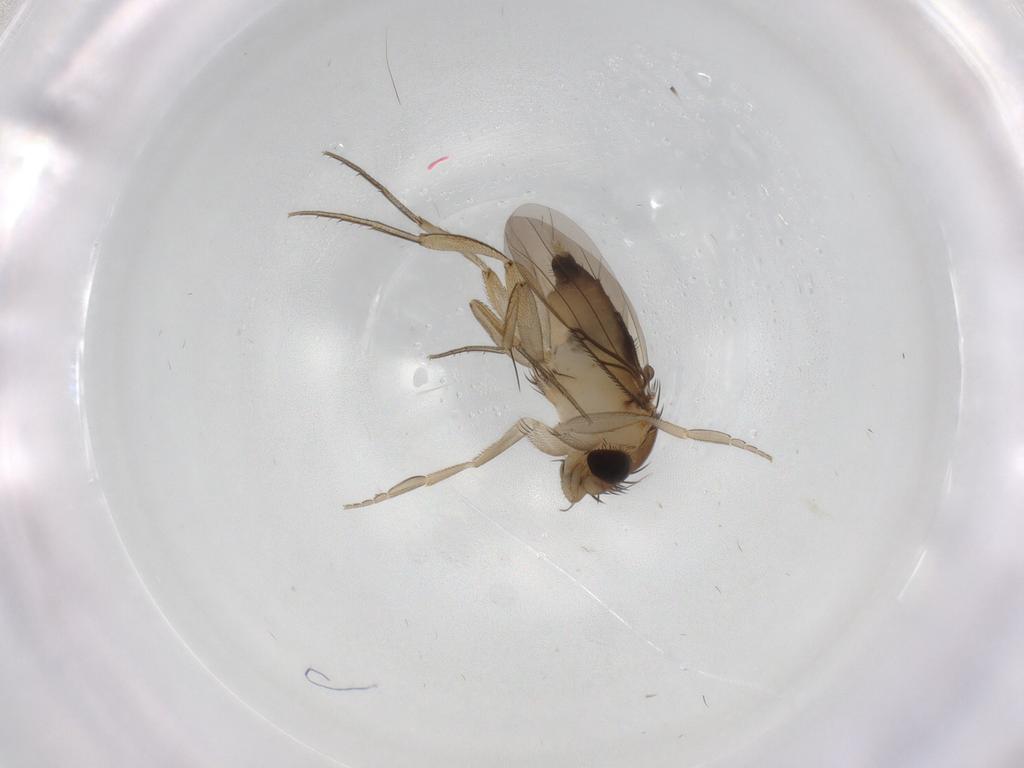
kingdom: Animalia
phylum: Arthropoda
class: Insecta
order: Diptera
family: Phoridae
